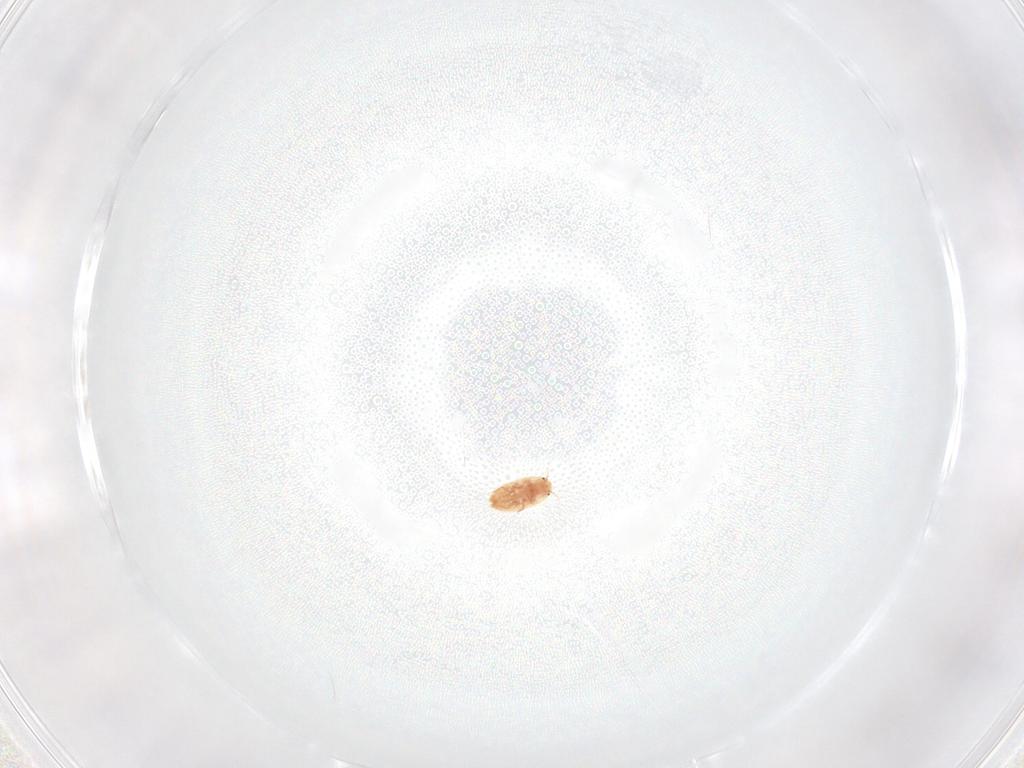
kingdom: Animalia
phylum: Arthropoda
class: Insecta
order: Hemiptera
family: Coccidae
